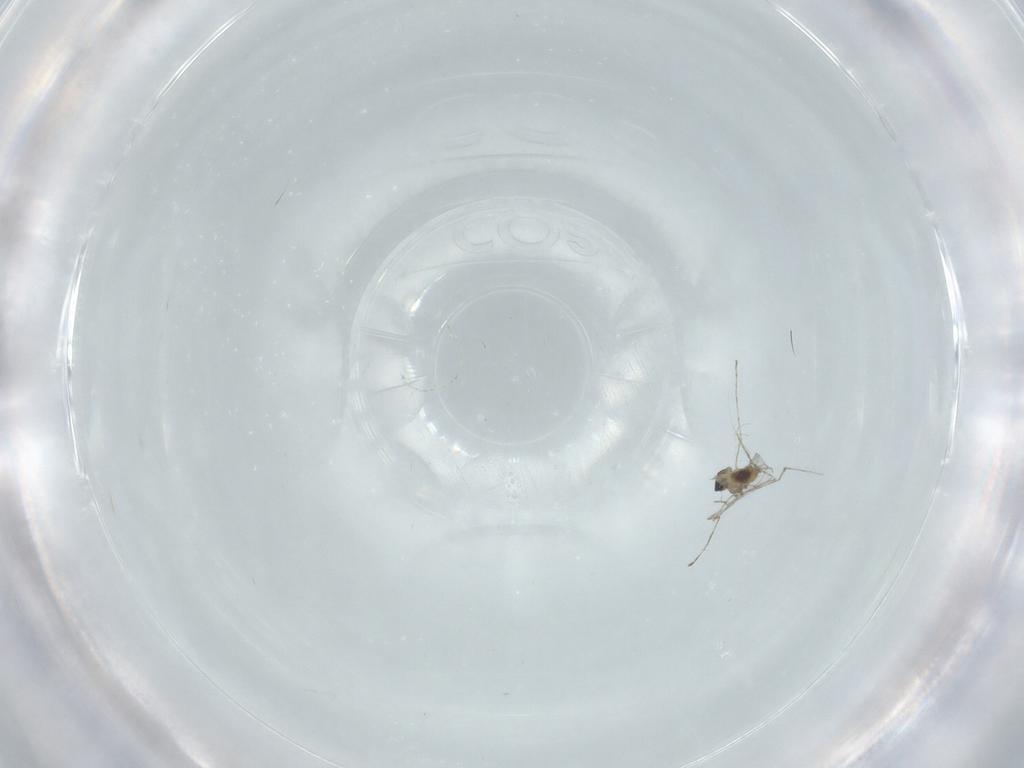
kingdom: Animalia
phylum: Arthropoda
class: Insecta
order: Diptera
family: Cecidomyiidae
